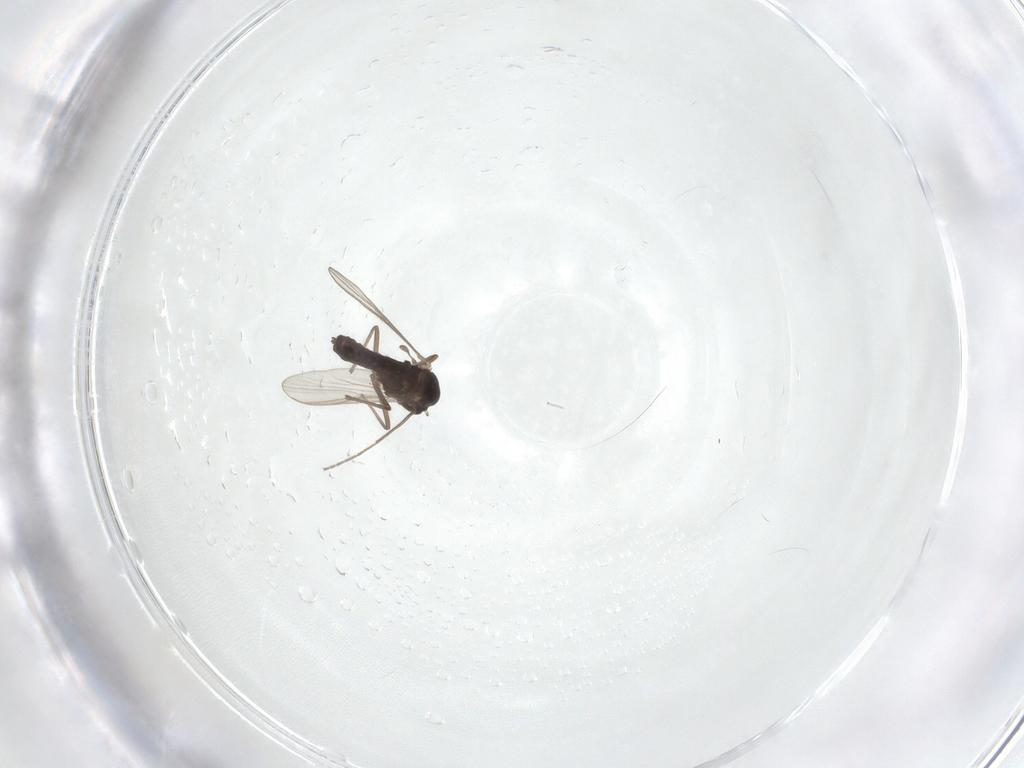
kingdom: Animalia
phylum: Arthropoda
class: Insecta
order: Diptera
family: Chironomidae
